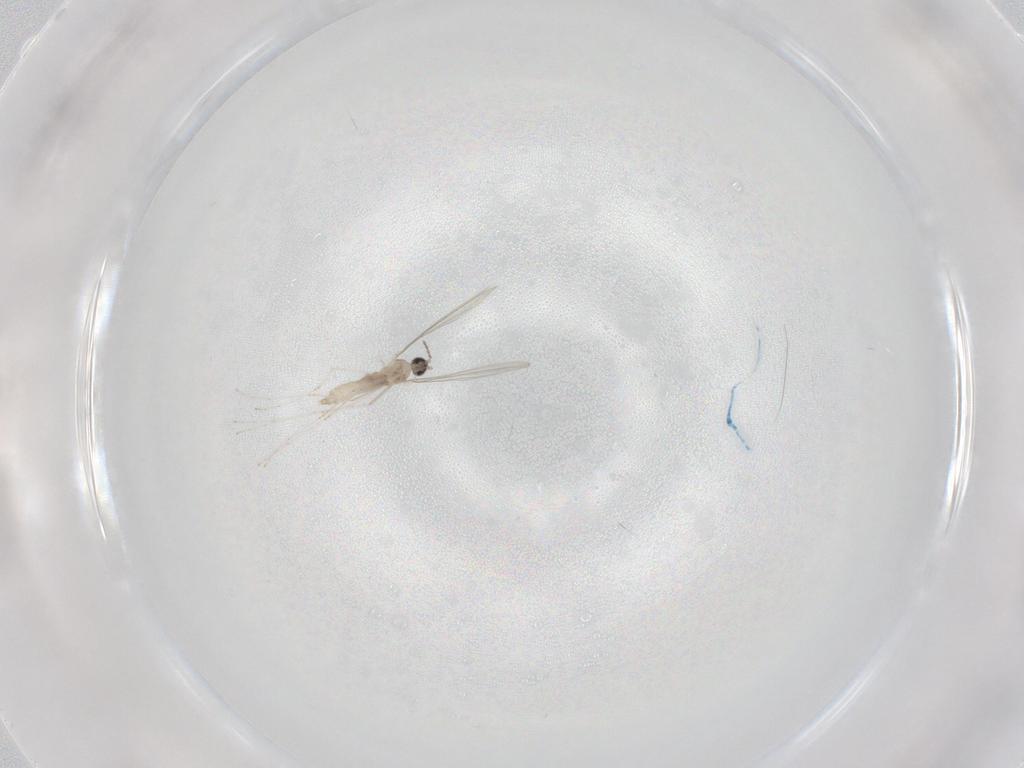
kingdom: Animalia
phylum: Arthropoda
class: Insecta
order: Diptera
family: Cecidomyiidae
